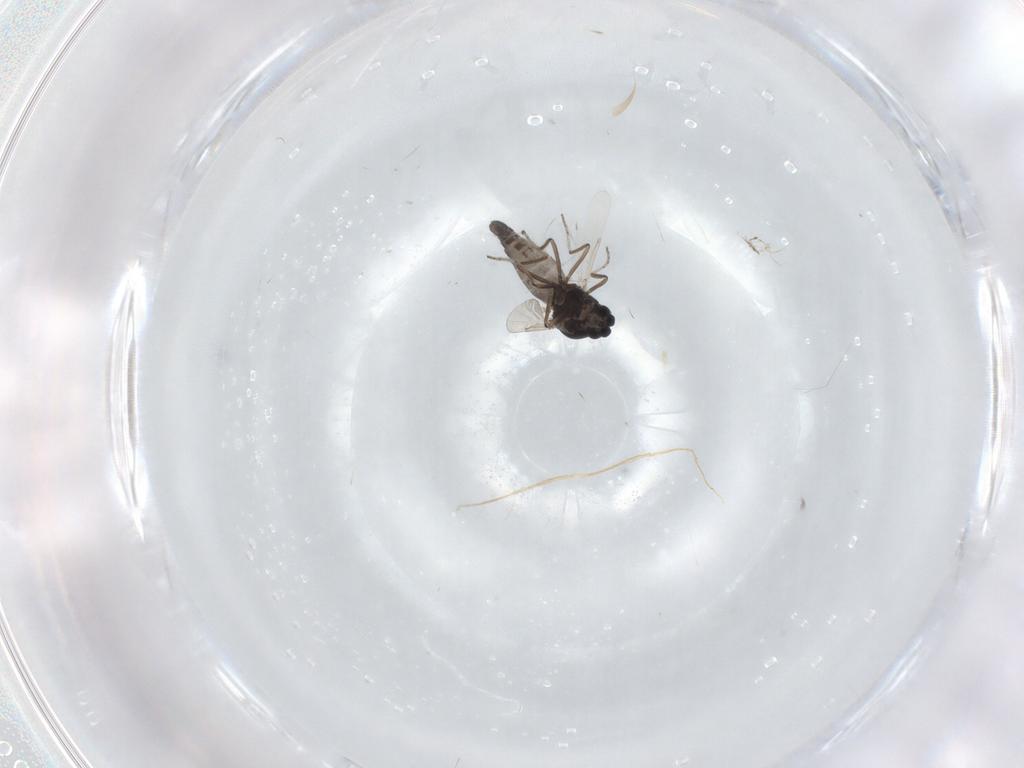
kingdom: Animalia
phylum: Arthropoda
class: Insecta
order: Diptera
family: Ceratopogonidae
